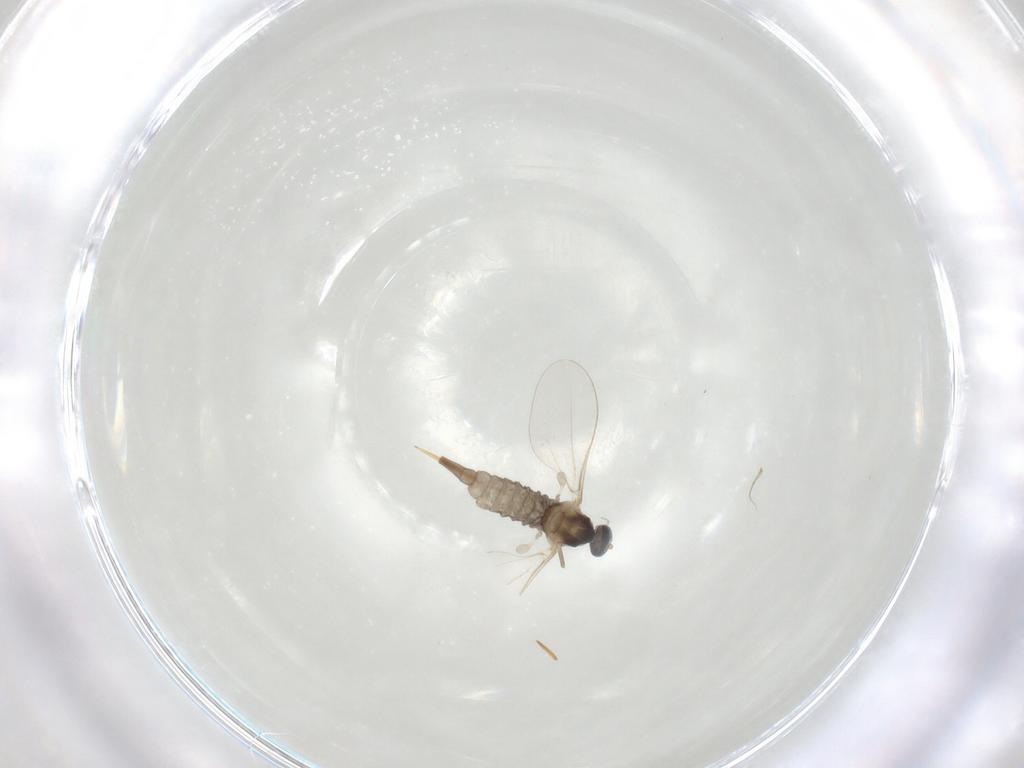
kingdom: Animalia
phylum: Arthropoda
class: Insecta
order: Diptera
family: Cecidomyiidae
